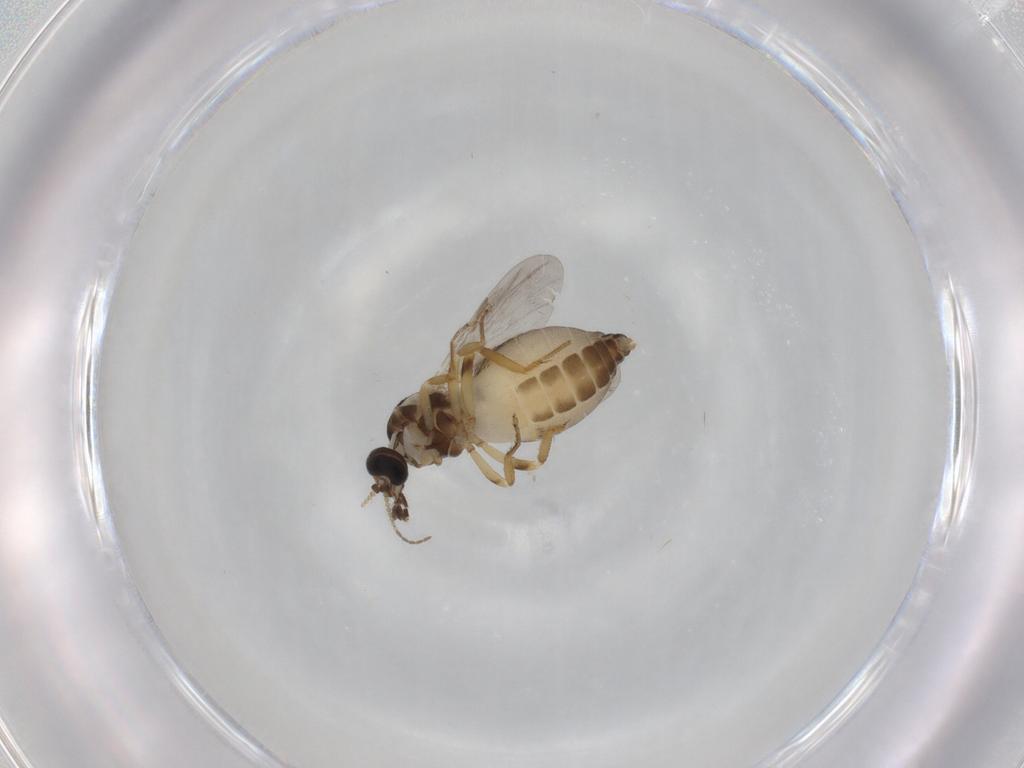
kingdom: Animalia
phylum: Arthropoda
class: Insecta
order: Diptera
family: Ceratopogonidae
